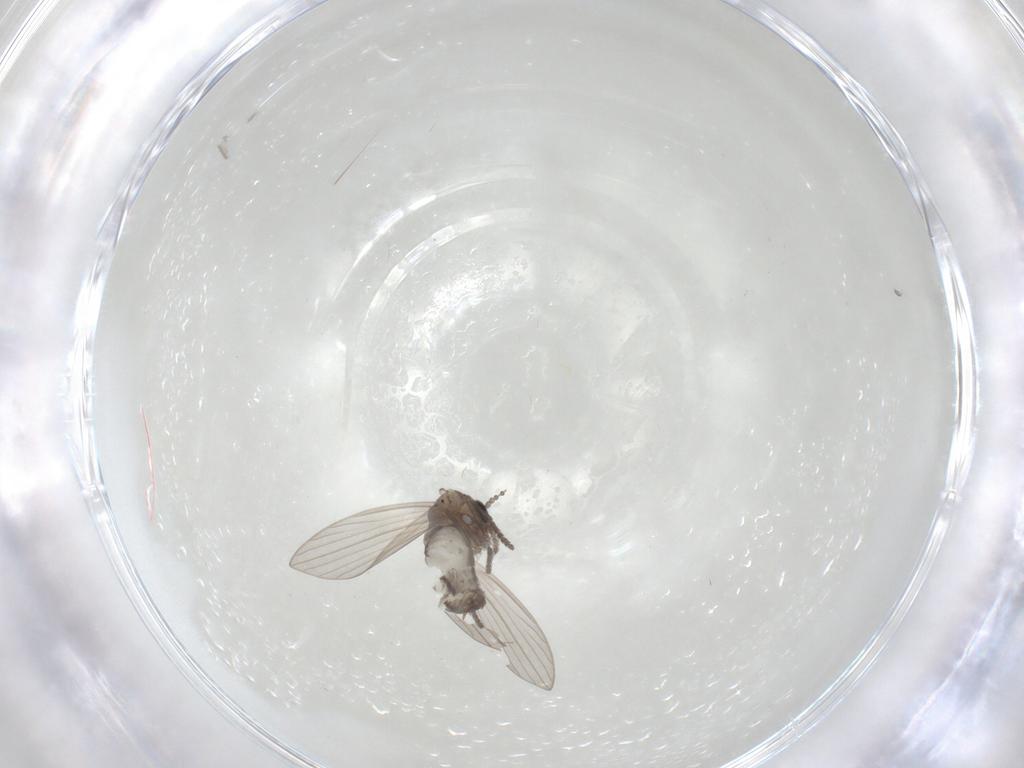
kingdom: Animalia
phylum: Arthropoda
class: Insecta
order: Diptera
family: Psychodidae
